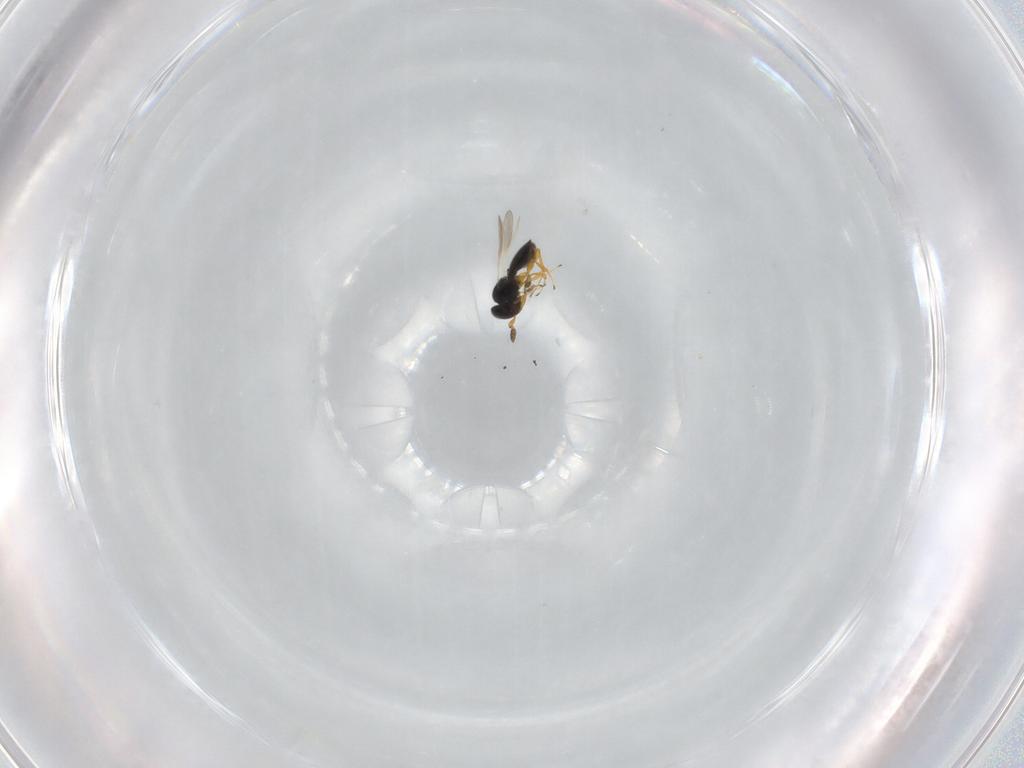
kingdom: Animalia
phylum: Arthropoda
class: Insecta
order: Hymenoptera
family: Platygastridae
